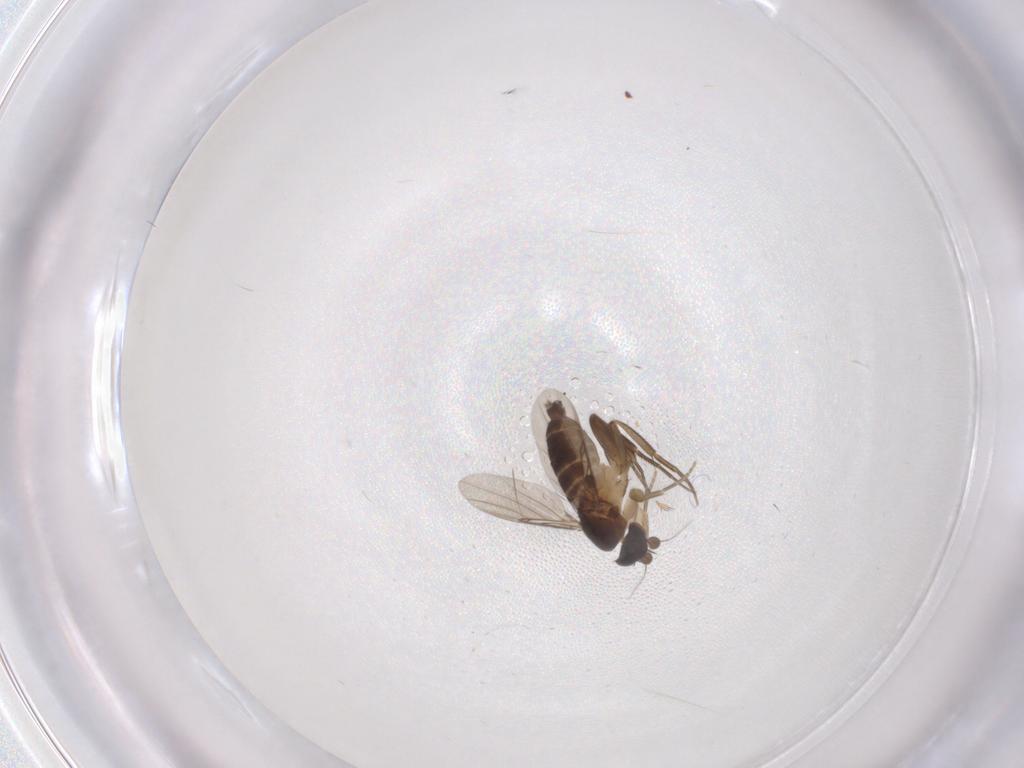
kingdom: Animalia
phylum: Arthropoda
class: Insecta
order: Diptera
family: Phoridae
